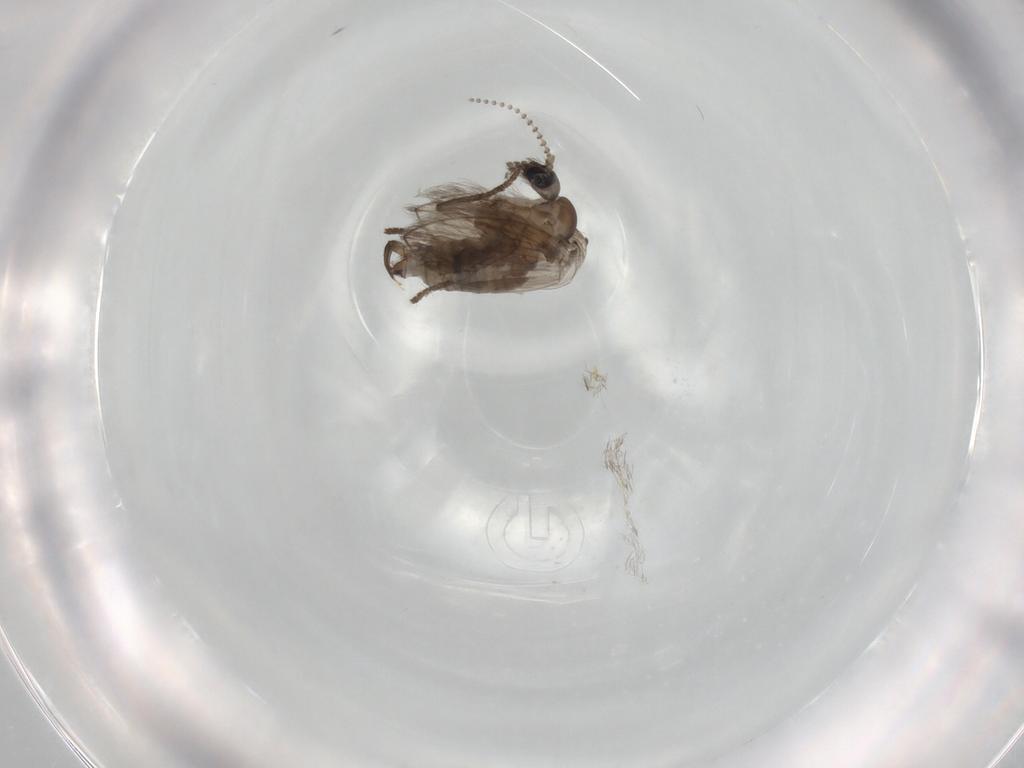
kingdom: Animalia
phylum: Arthropoda
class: Insecta
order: Diptera
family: Psychodidae
